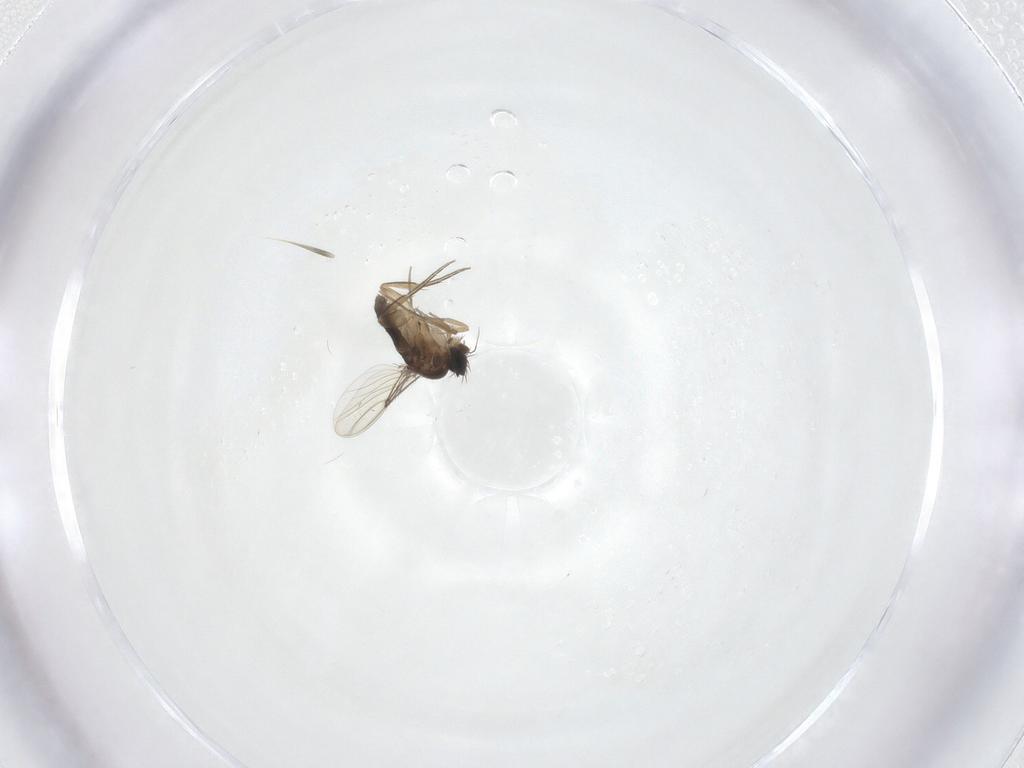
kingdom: Animalia
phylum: Arthropoda
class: Insecta
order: Diptera
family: Phoridae
